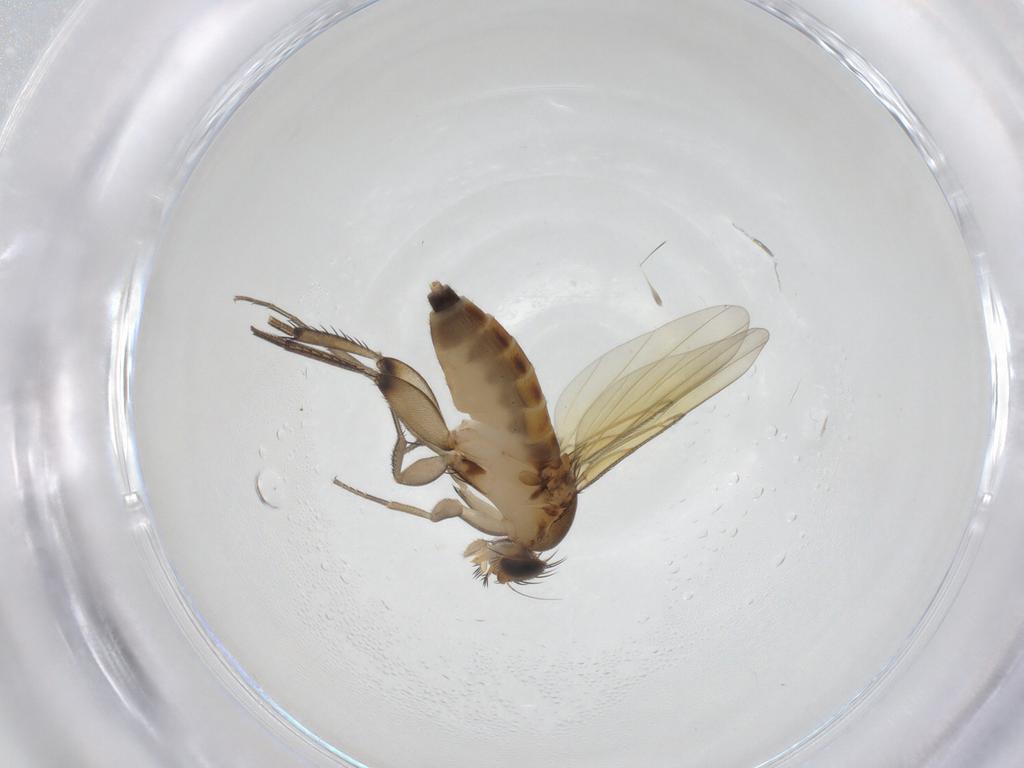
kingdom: Animalia
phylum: Arthropoda
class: Insecta
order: Diptera
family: Phoridae
